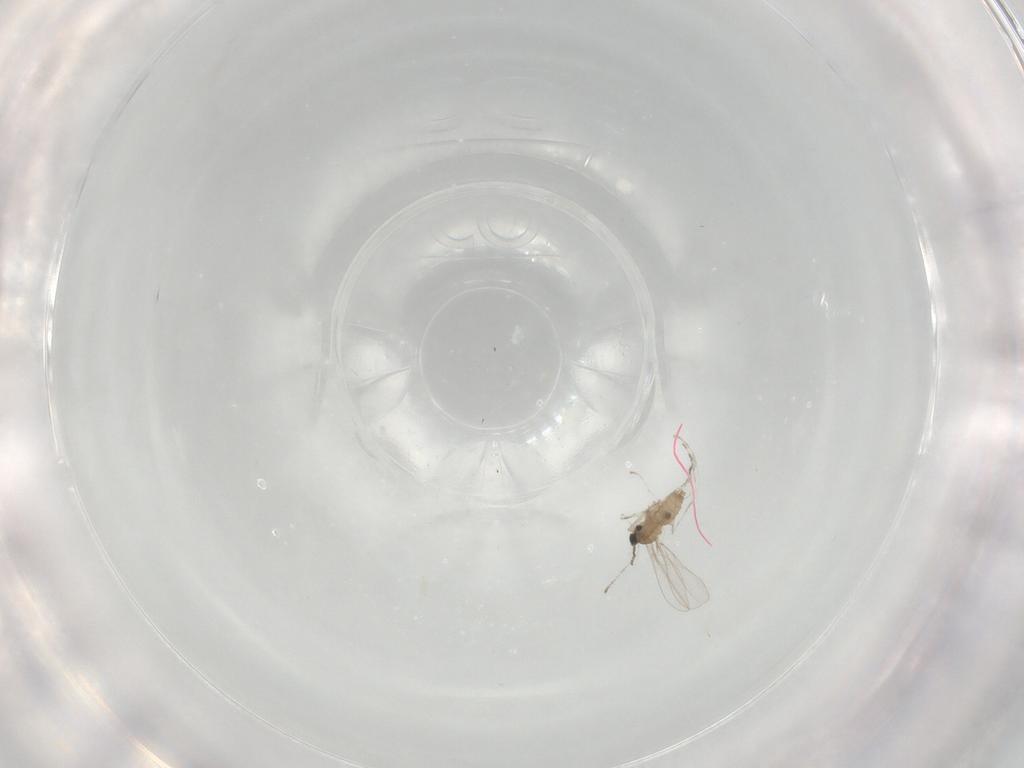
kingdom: Animalia
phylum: Arthropoda
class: Insecta
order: Diptera
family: Cecidomyiidae
